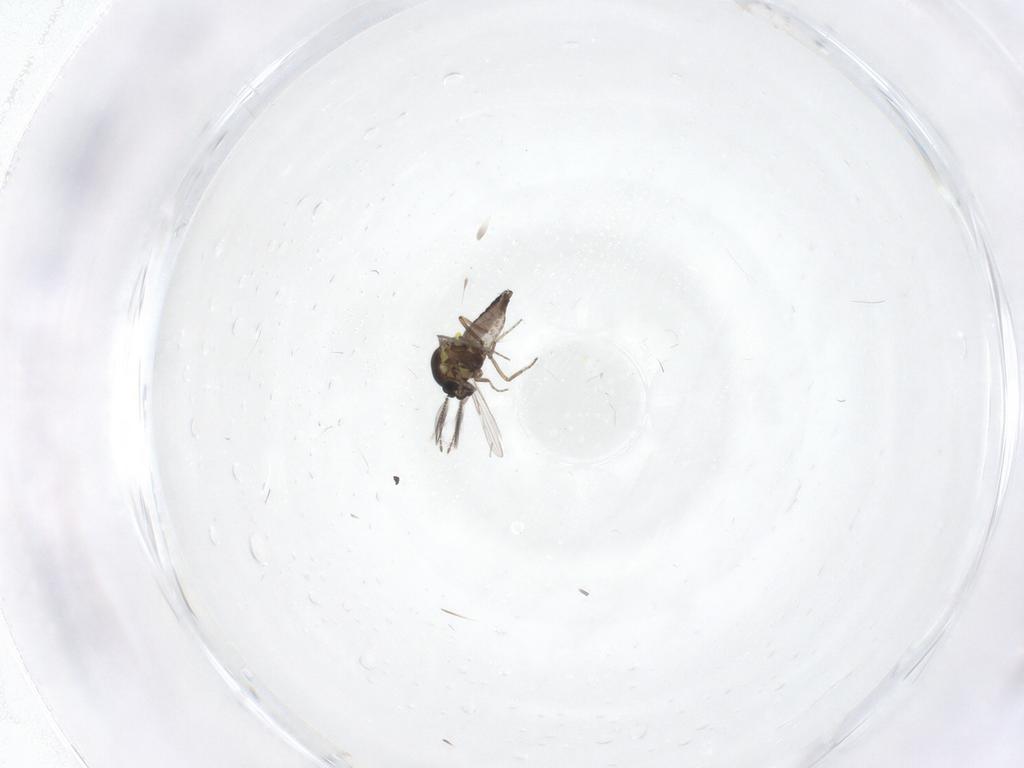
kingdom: Animalia
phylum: Arthropoda
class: Insecta
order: Diptera
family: Ceratopogonidae
